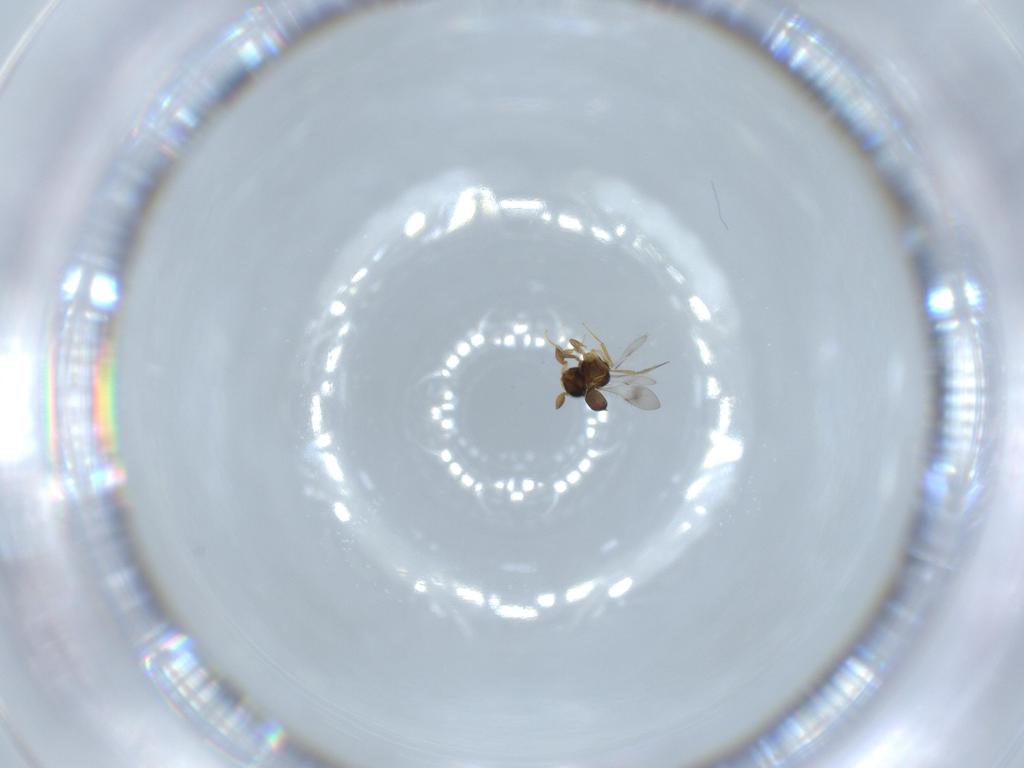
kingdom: Animalia
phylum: Arthropoda
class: Insecta
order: Hymenoptera
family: Scelionidae
